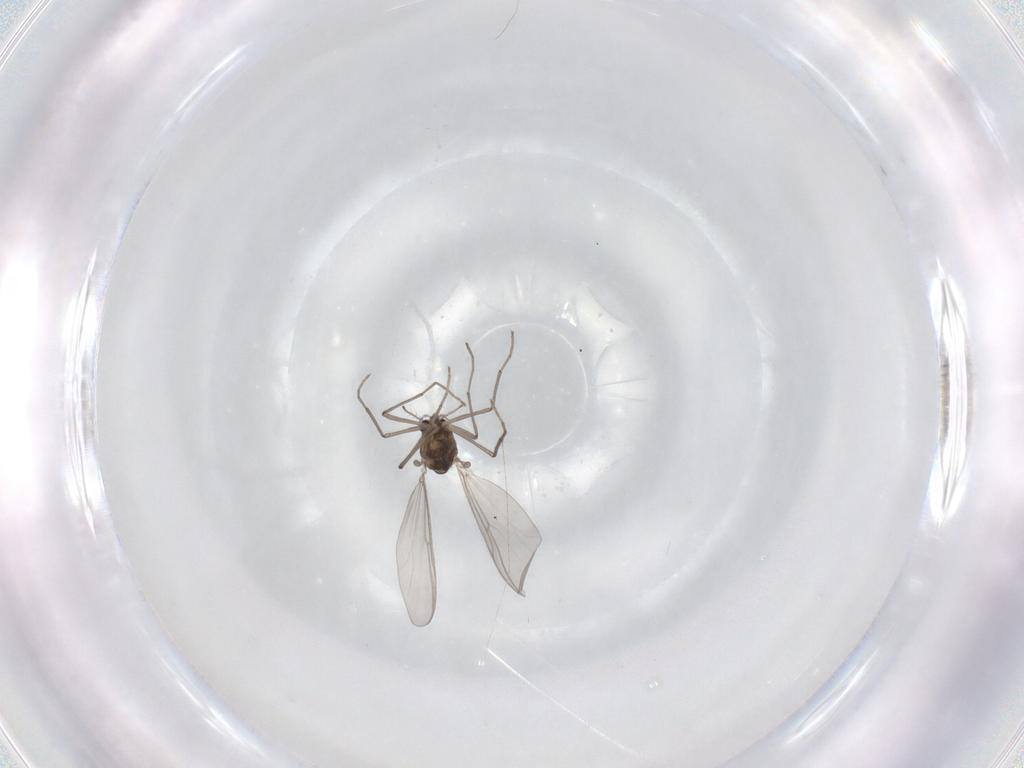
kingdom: Animalia
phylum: Arthropoda
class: Insecta
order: Diptera
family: Chironomidae
